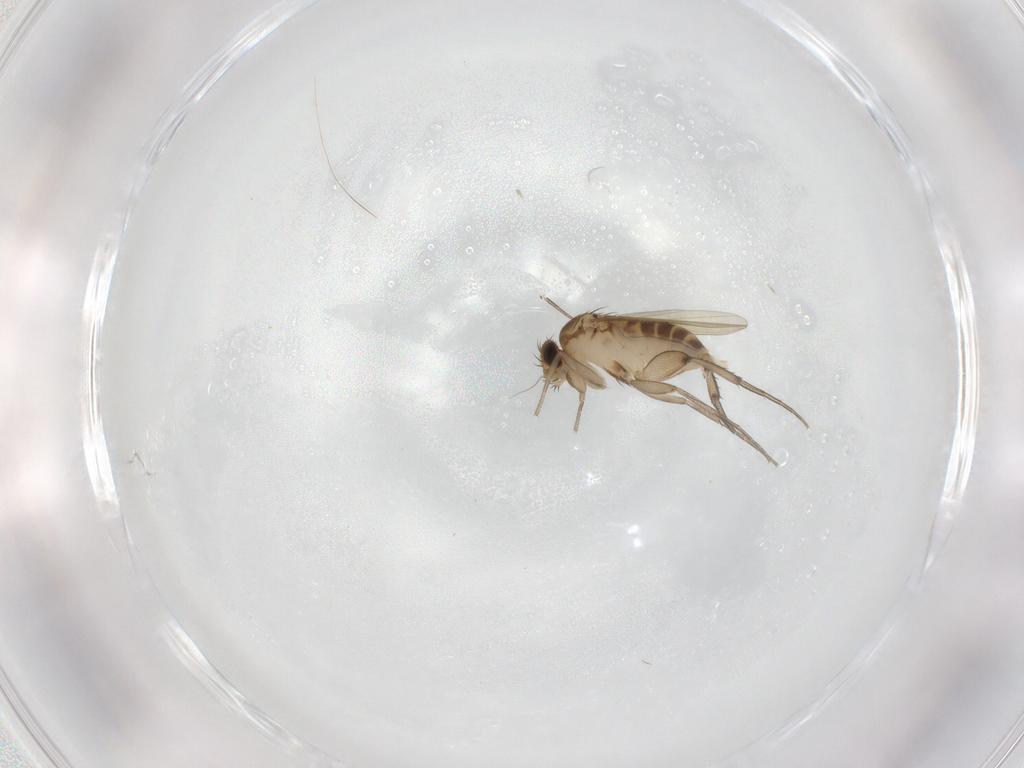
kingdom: Animalia
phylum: Arthropoda
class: Insecta
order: Diptera
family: Phoridae
